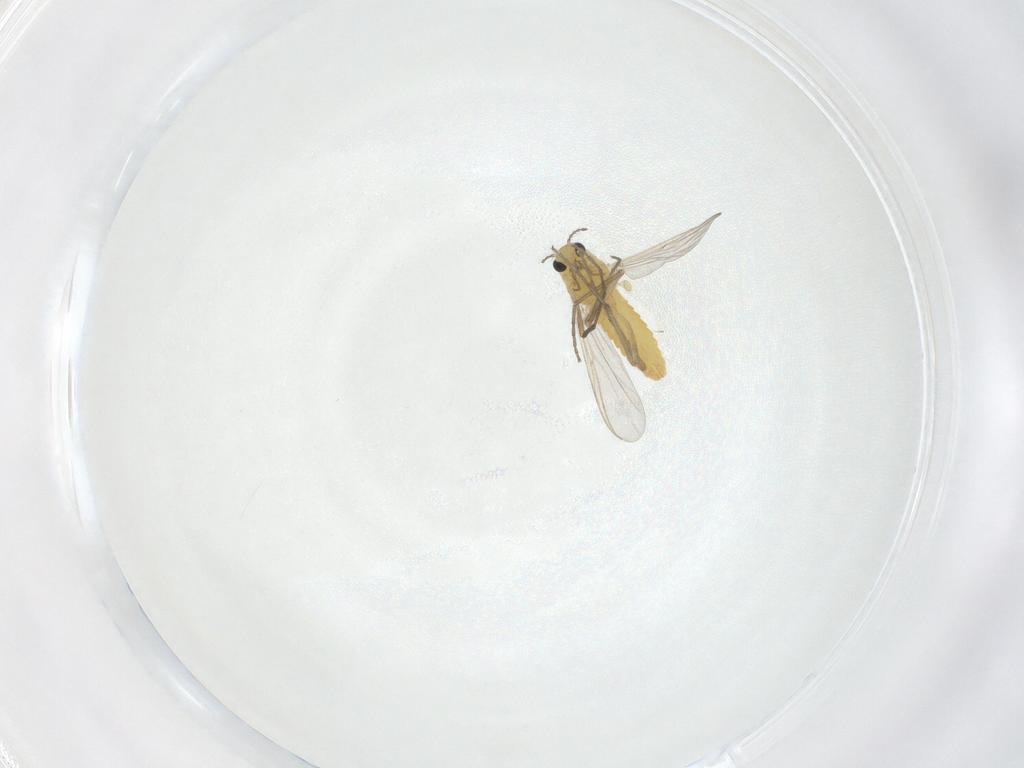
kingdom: Animalia
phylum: Arthropoda
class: Insecta
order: Diptera
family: Chironomidae
